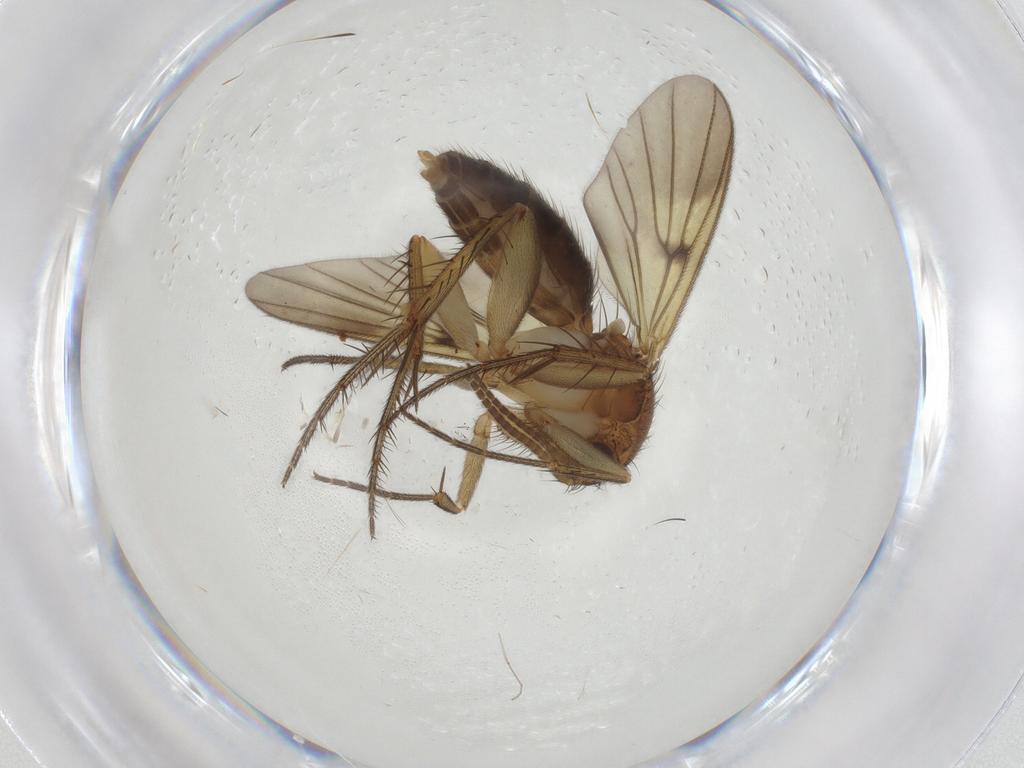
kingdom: Animalia
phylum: Arthropoda
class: Insecta
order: Diptera
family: Mycetophilidae
